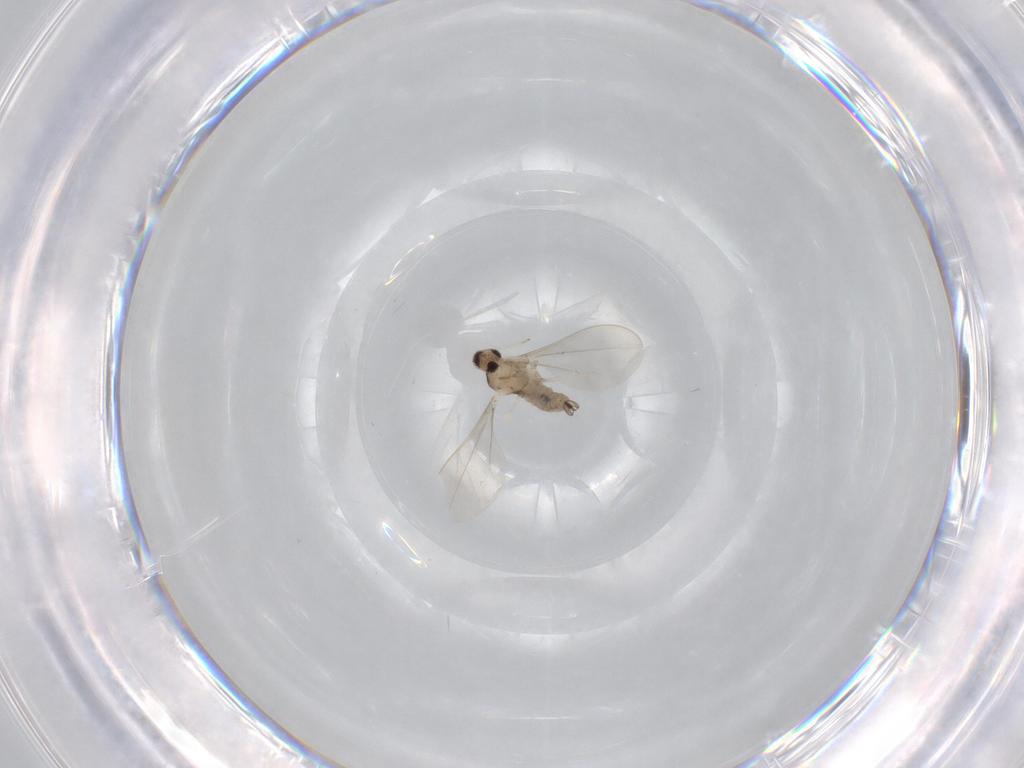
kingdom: Animalia
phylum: Arthropoda
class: Insecta
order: Diptera
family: Cecidomyiidae
